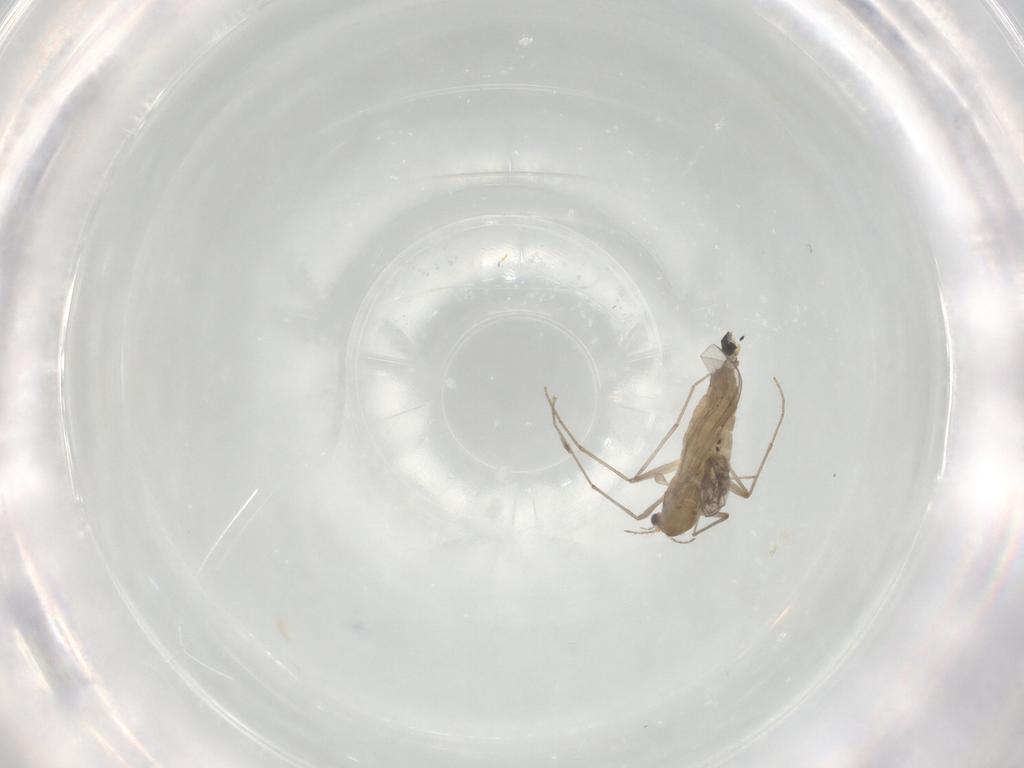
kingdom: Animalia
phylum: Arthropoda
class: Insecta
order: Diptera
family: Chironomidae
